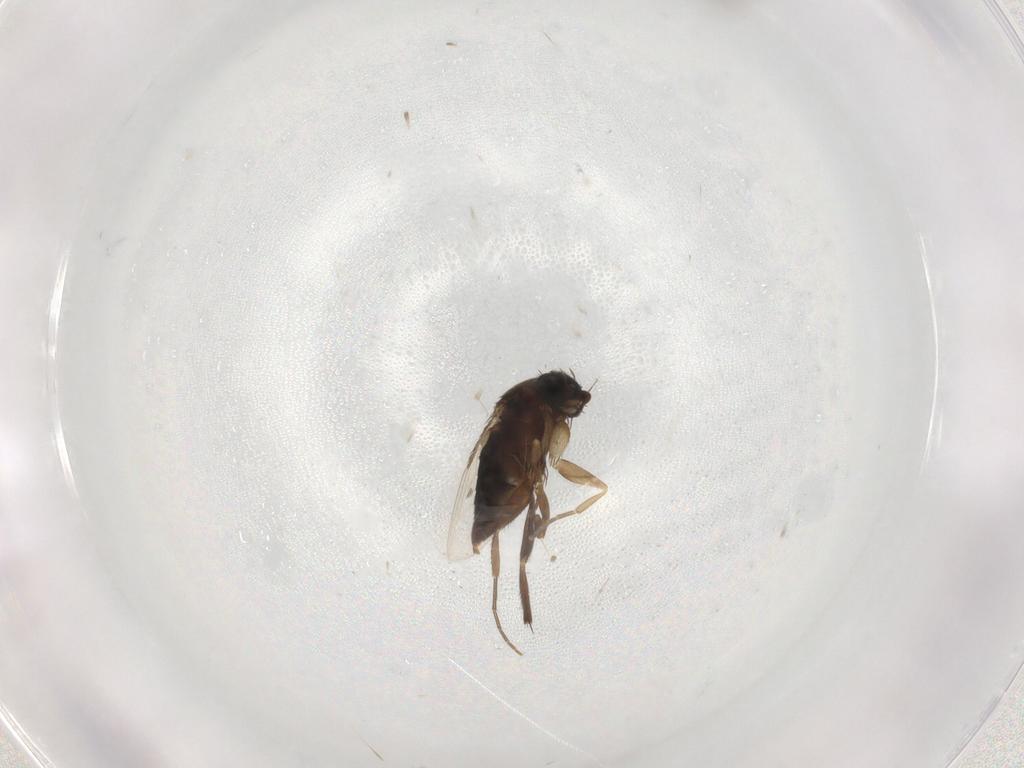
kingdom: Animalia
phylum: Arthropoda
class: Insecta
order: Diptera
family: Phoridae
